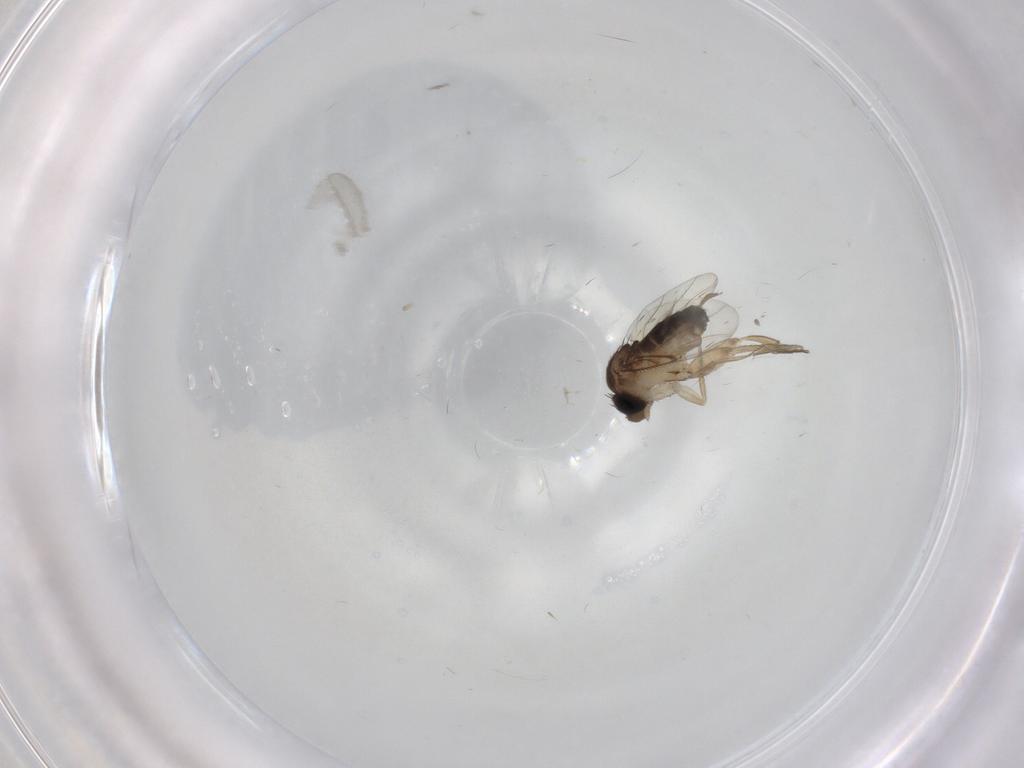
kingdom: Animalia
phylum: Arthropoda
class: Insecta
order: Diptera
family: Phoridae
